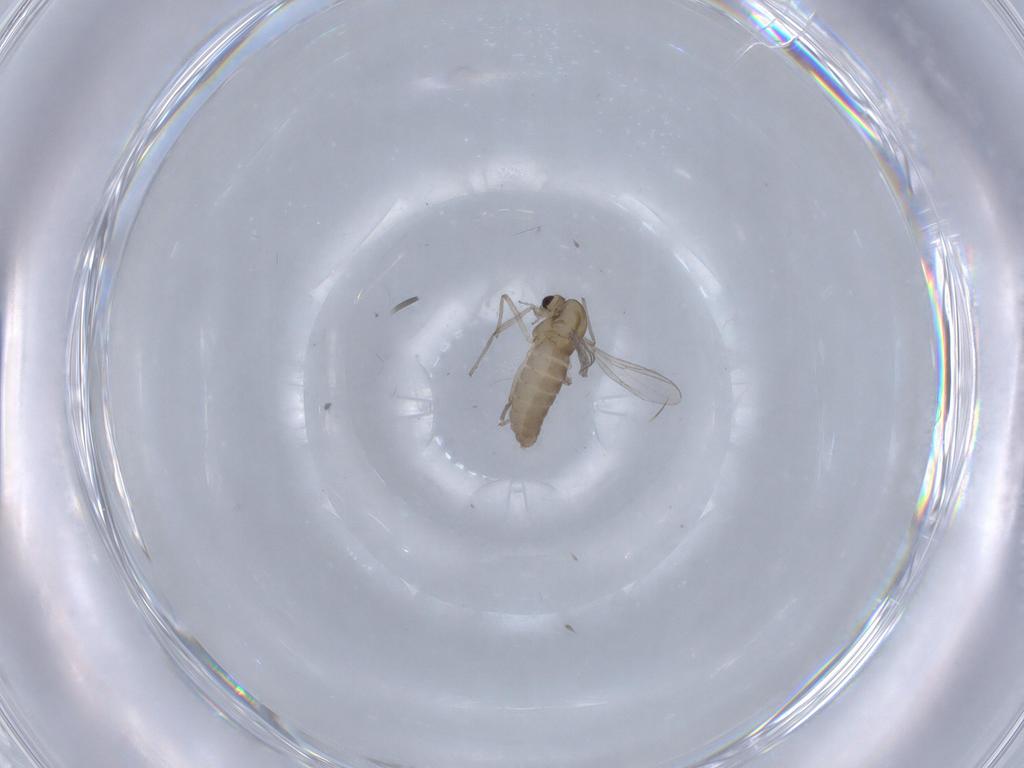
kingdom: Animalia
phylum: Arthropoda
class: Insecta
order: Diptera
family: Chironomidae
